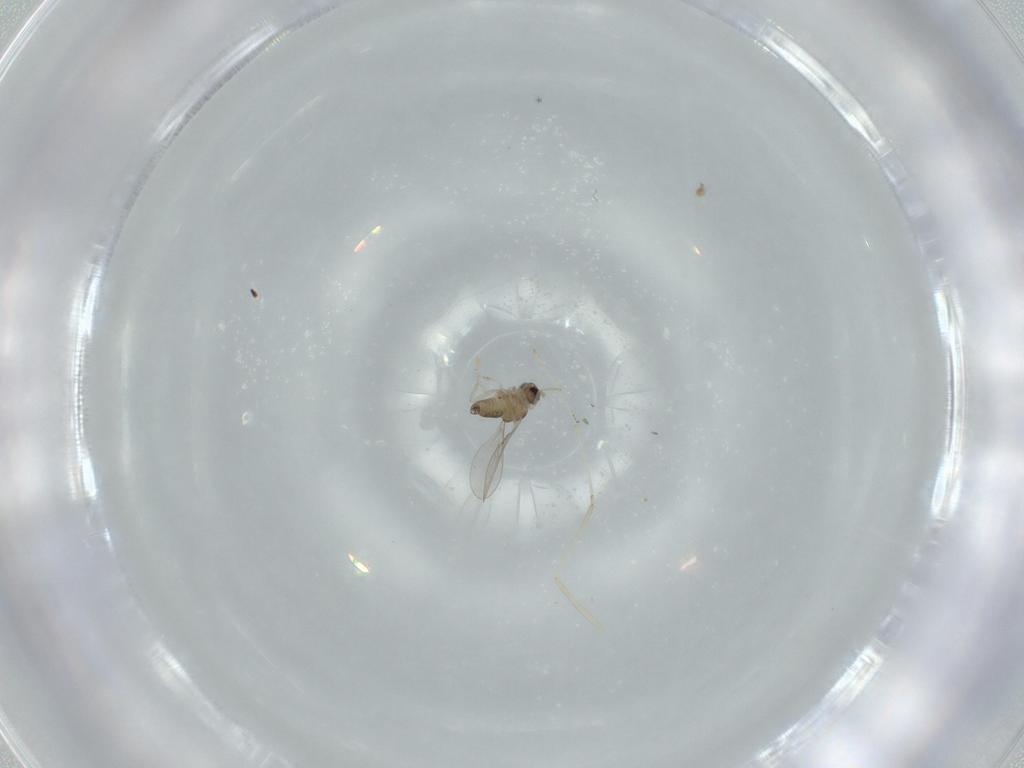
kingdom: Animalia
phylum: Arthropoda
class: Insecta
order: Diptera
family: Cecidomyiidae
